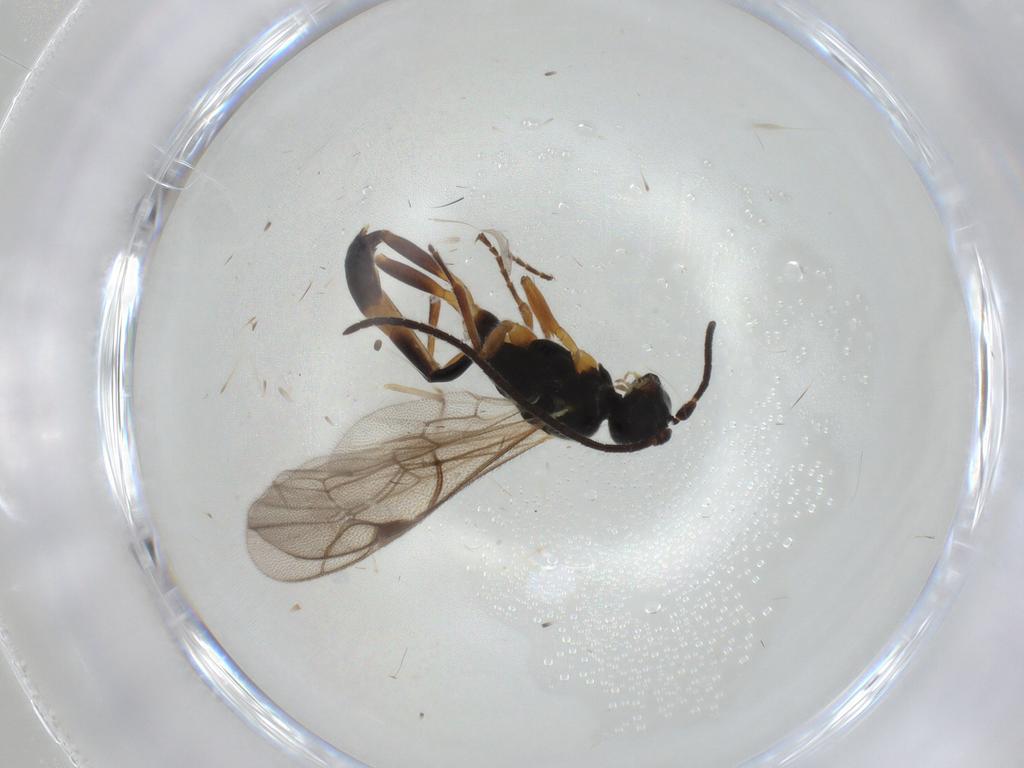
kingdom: Animalia
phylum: Arthropoda
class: Insecta
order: Hymenoptera
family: Ichneumonidae
